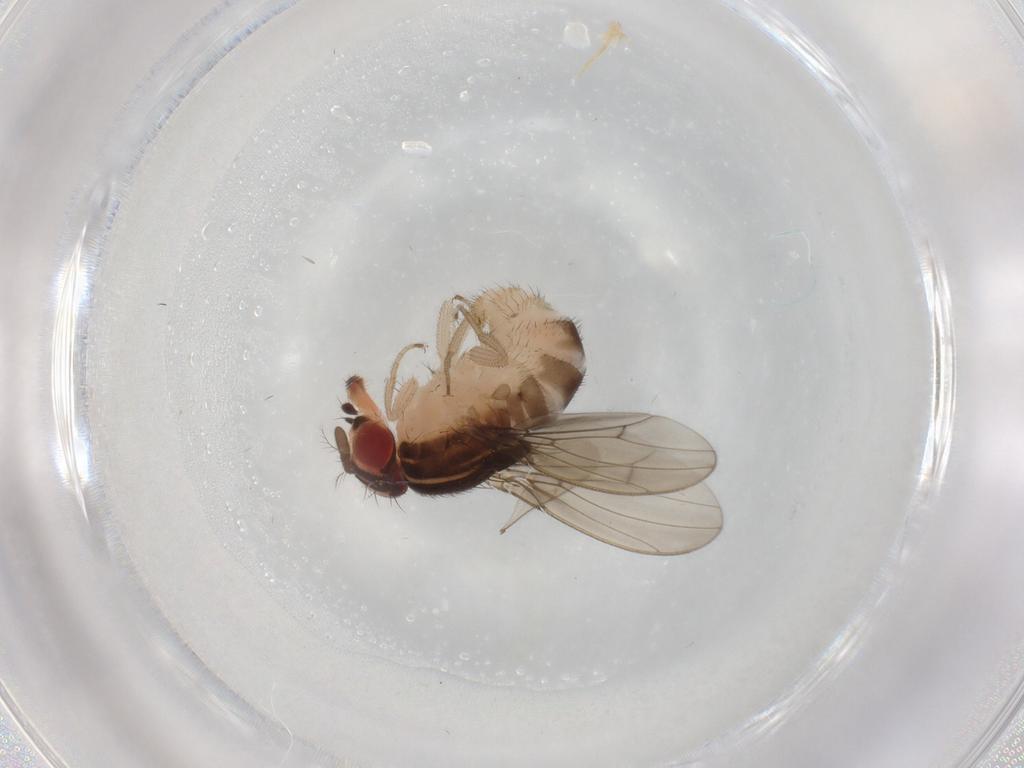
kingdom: Animalia
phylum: Arthropoda
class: Insecta
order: Diptera
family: Drosophilidae
